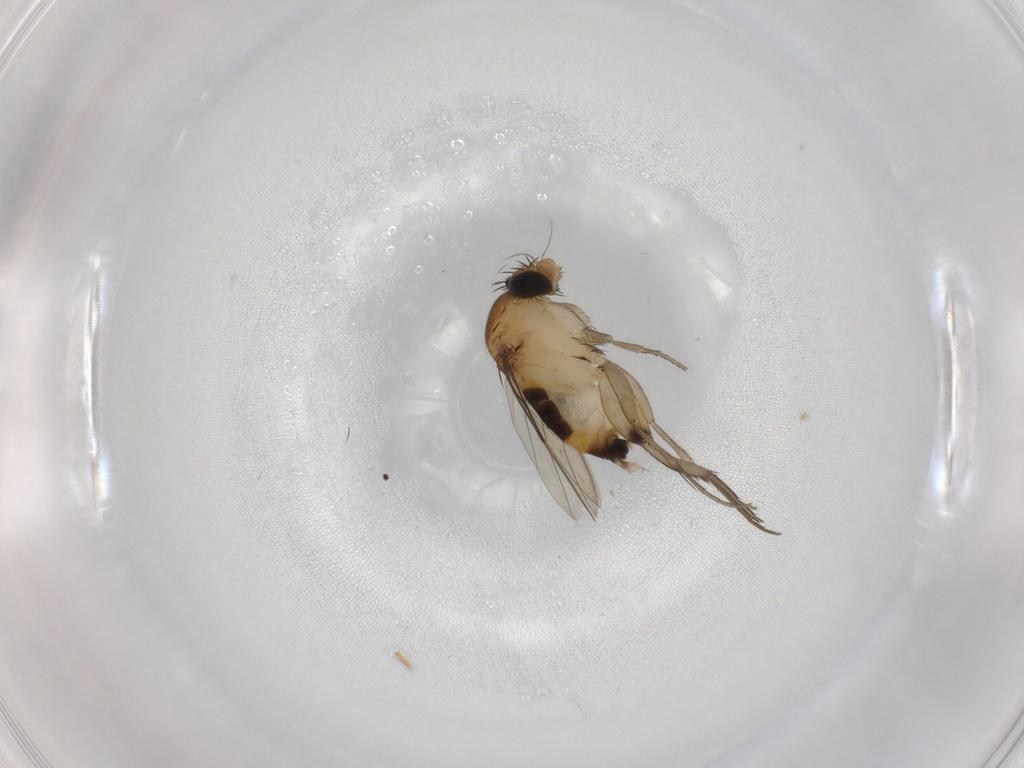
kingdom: Animalia
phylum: Arthropoda
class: Insecta
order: Diptera
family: Phoridae
